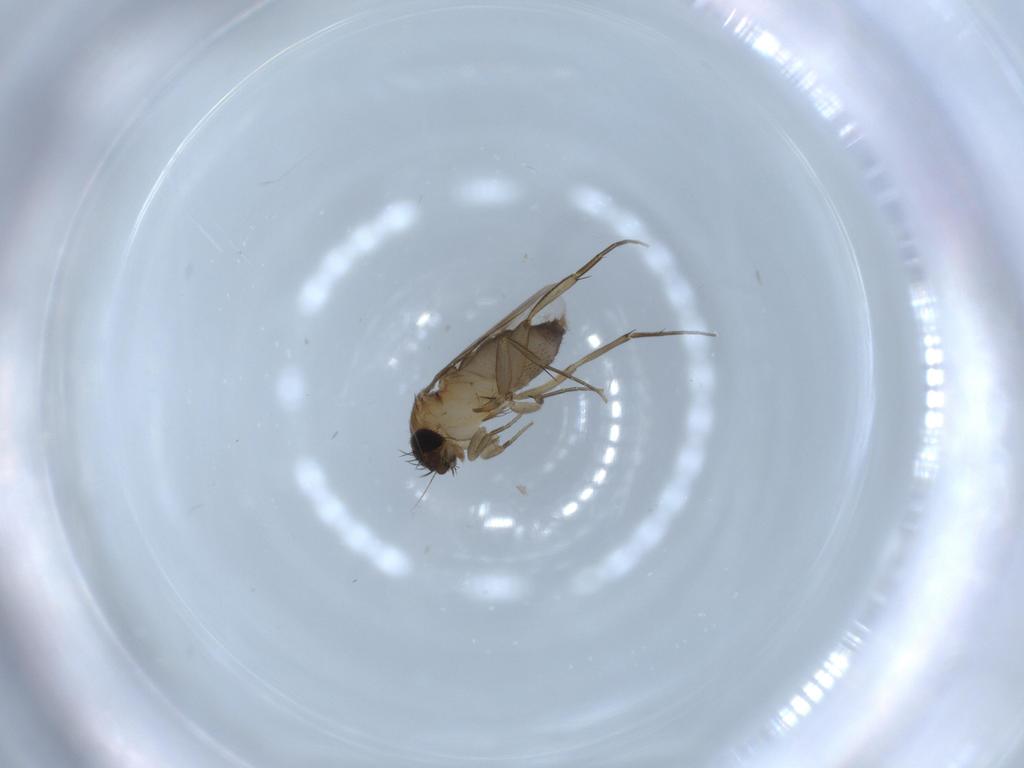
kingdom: Animalia
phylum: Arthropoda
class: Insecta
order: Diptera
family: Phoridae
